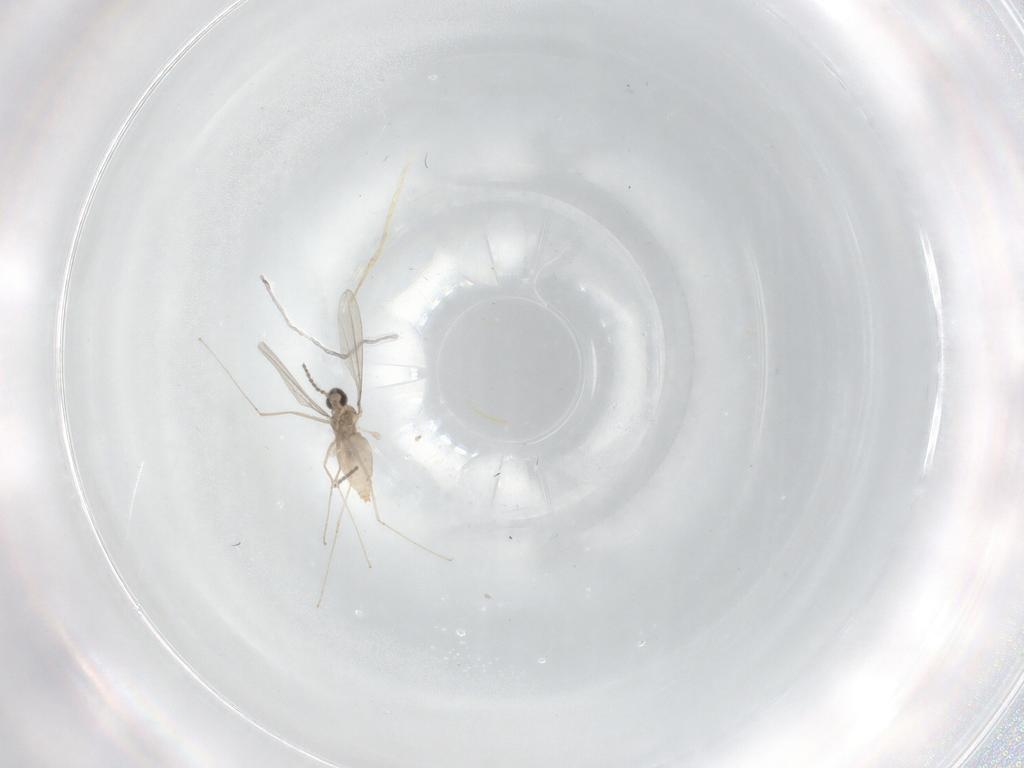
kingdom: Animalia
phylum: Arthropoda
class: Insecta
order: Diptera
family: Cecidomyiidae
